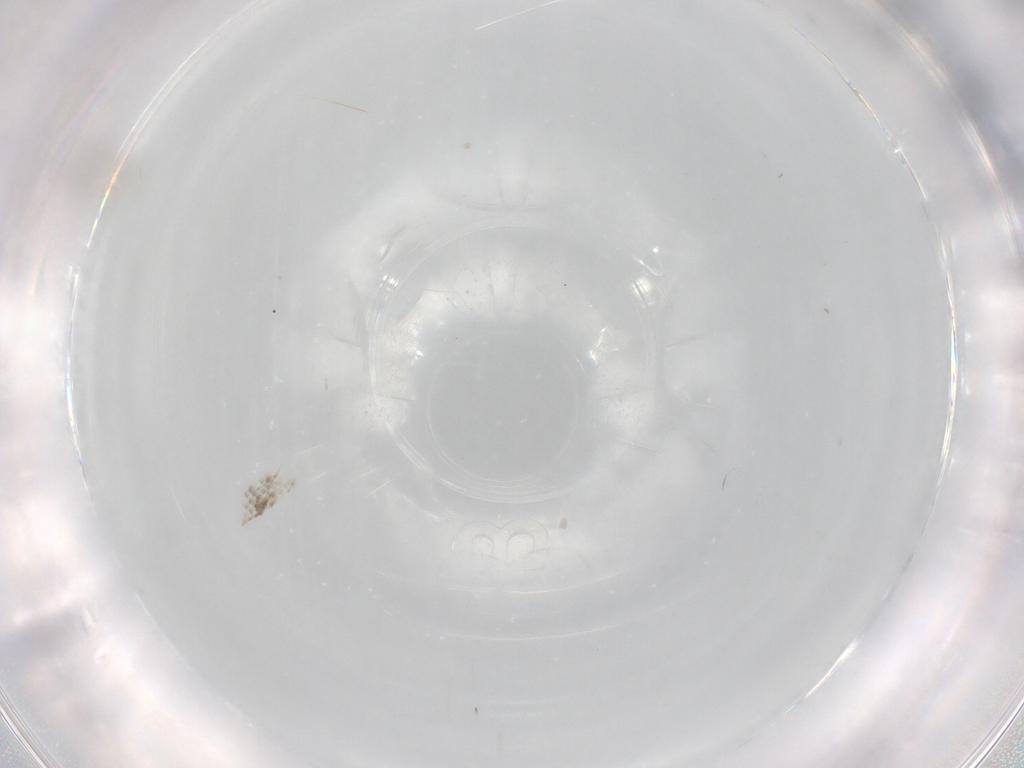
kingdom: Animalia
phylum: Arthropoda
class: Insecta
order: Lepidoptera
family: Tortricidae
